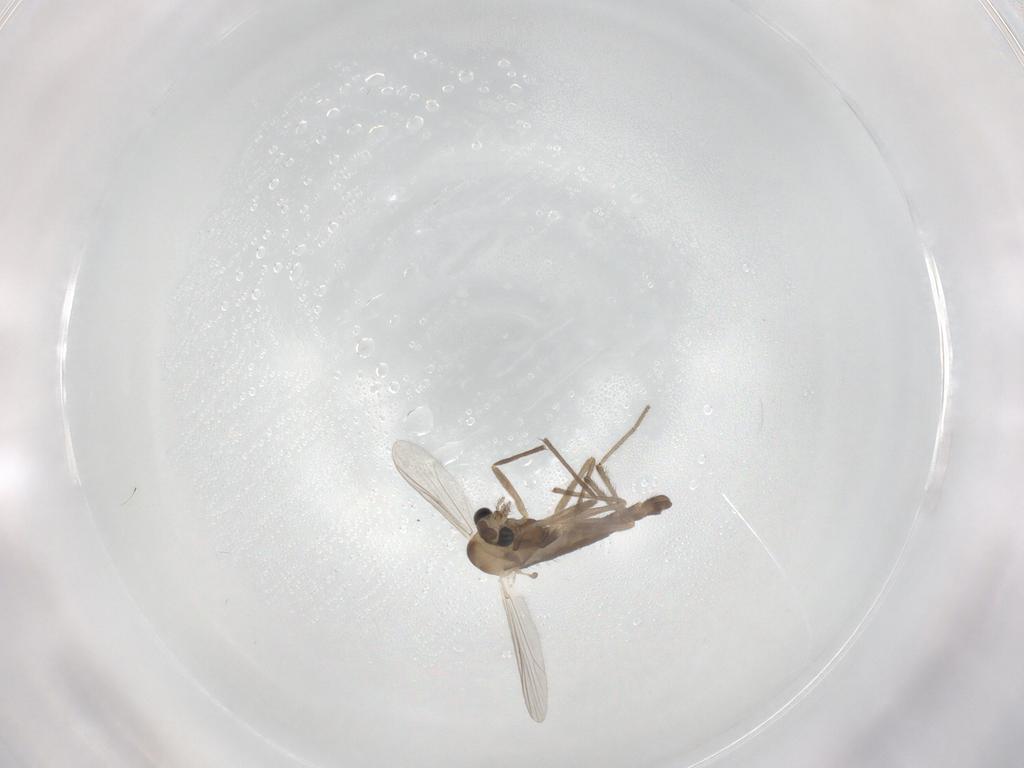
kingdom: Animalia
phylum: Arthropoda
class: Insecta
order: Diptera
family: Chironomidae
